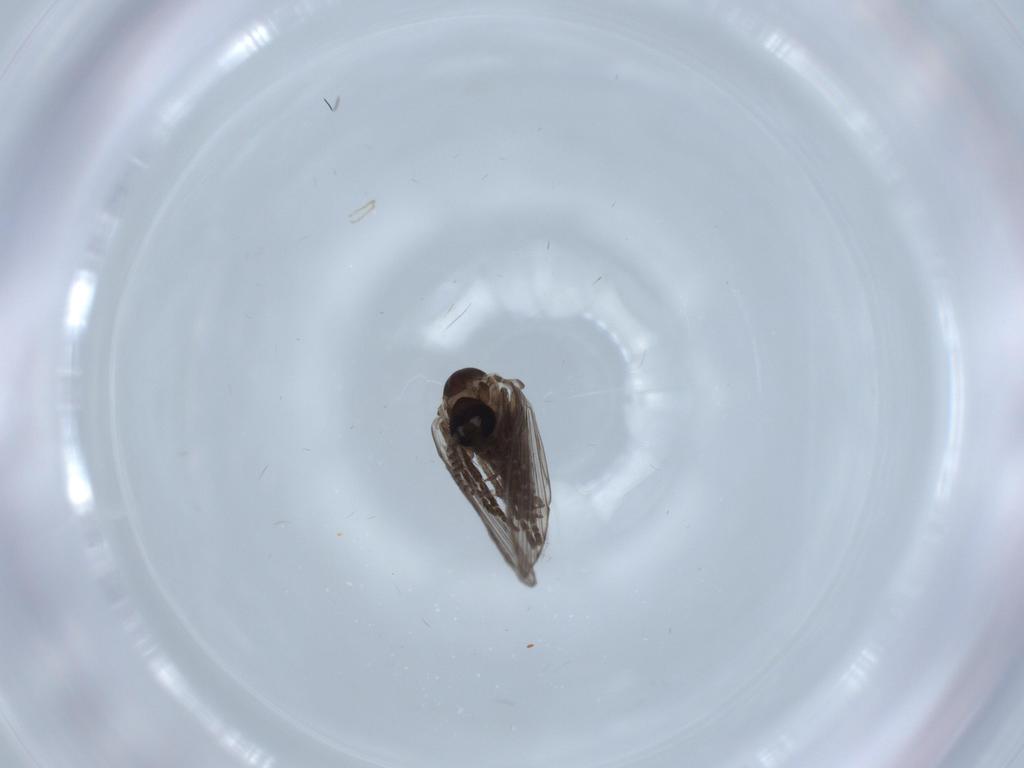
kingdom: Animalia
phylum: Arthropoda
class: Insecta
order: Diptera
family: Psychodidae
